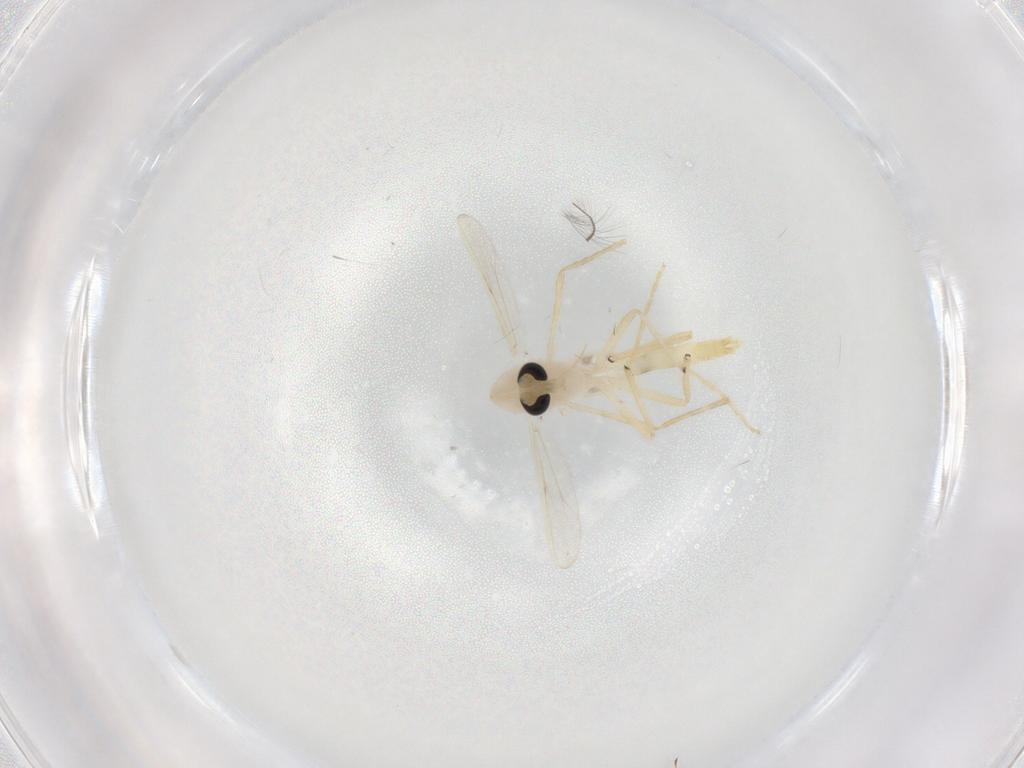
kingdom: Animalia
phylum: Arthropoda
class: Insecta
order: Diptera
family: Chironomidae
